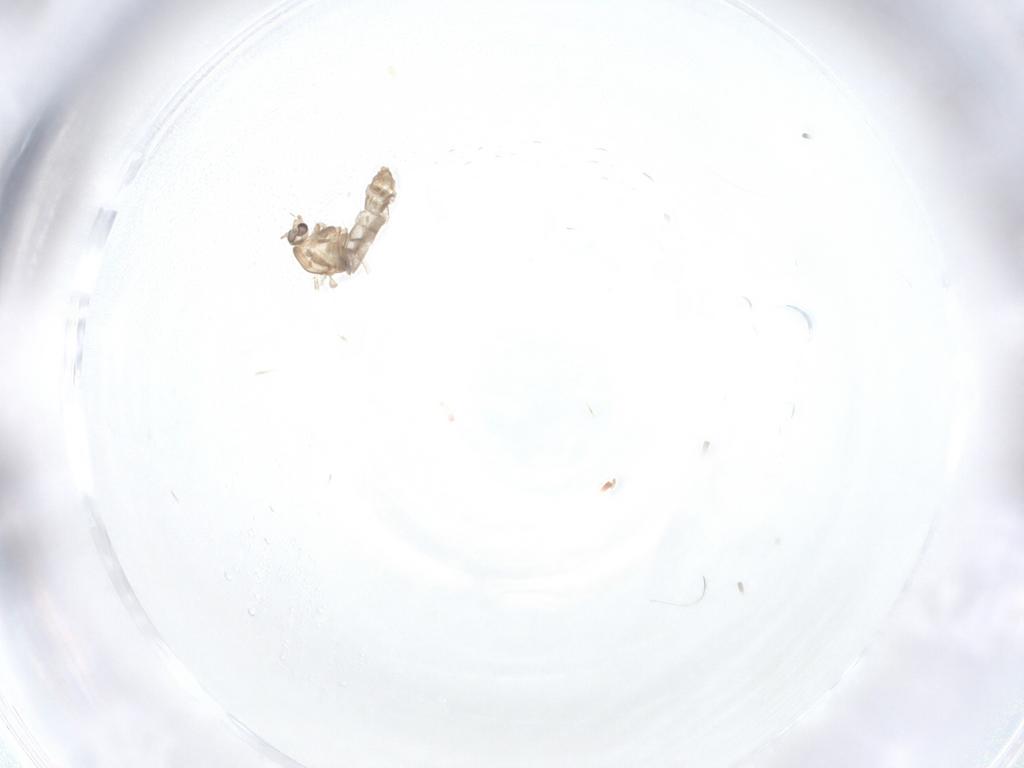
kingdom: Animalia
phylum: Arthropoda
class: Insecta
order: Diptera
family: Chironomidae
